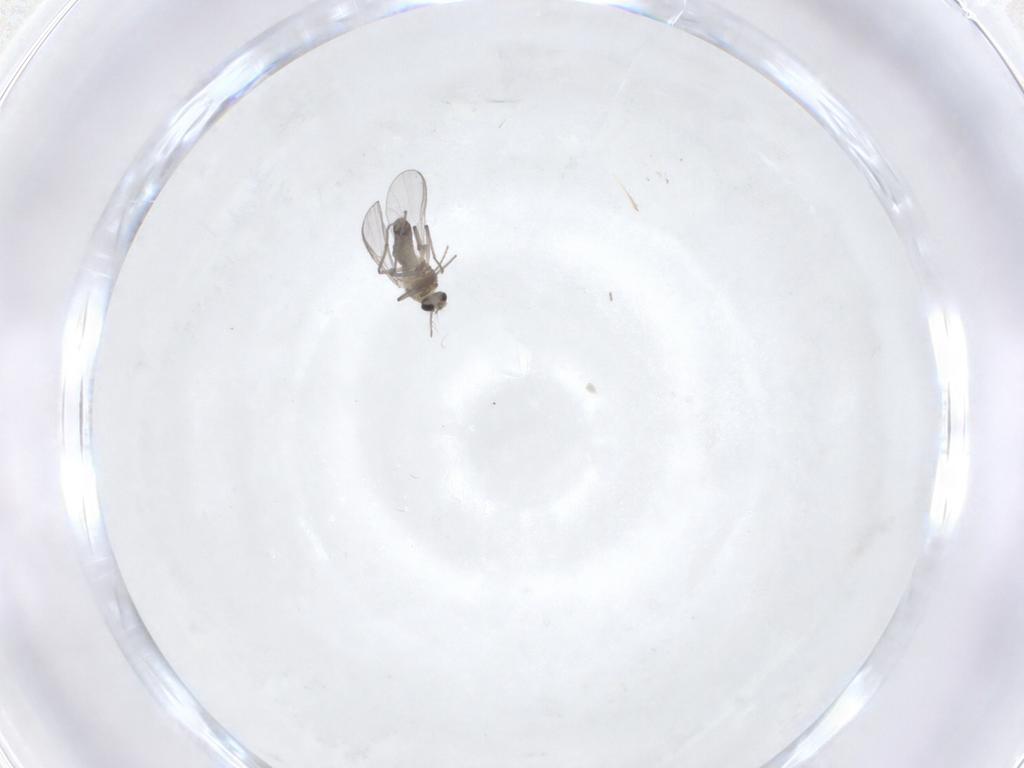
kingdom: Animalia
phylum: Arthropoda
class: Insecta
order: Diptera
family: Chironomidae
